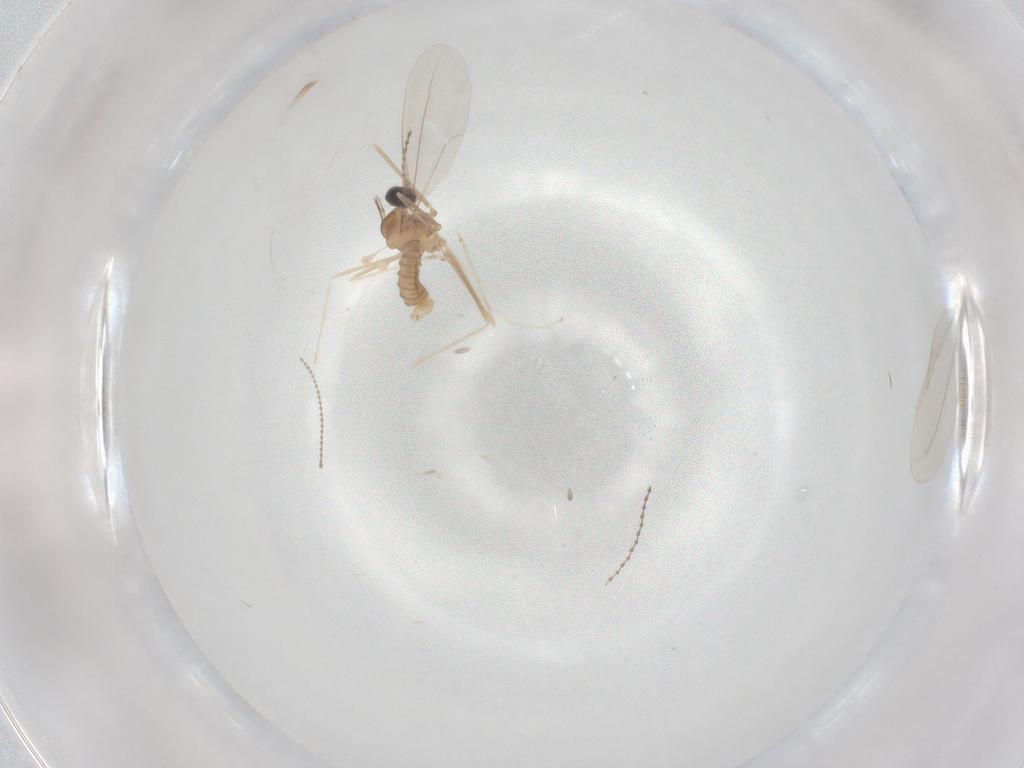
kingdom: Animalia
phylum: Arthropoda
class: Insecta
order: Diptera
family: Cecidomyiidae
